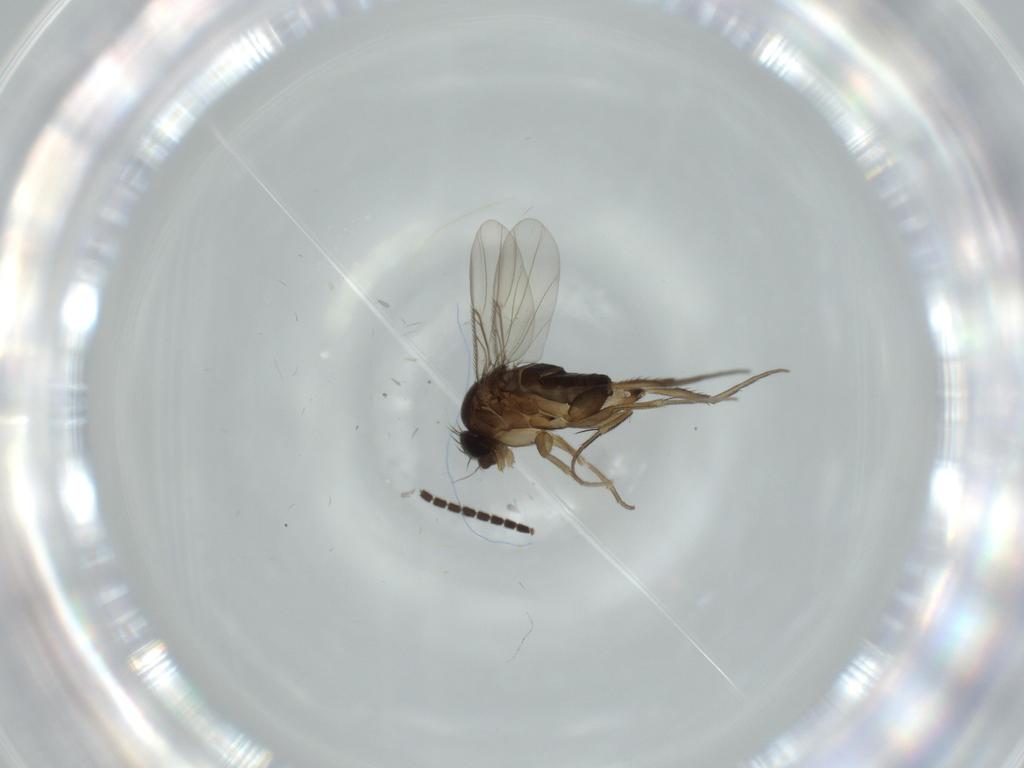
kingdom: Animalia
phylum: Arthropoda
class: Insecta
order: Diptera
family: Phoridae
